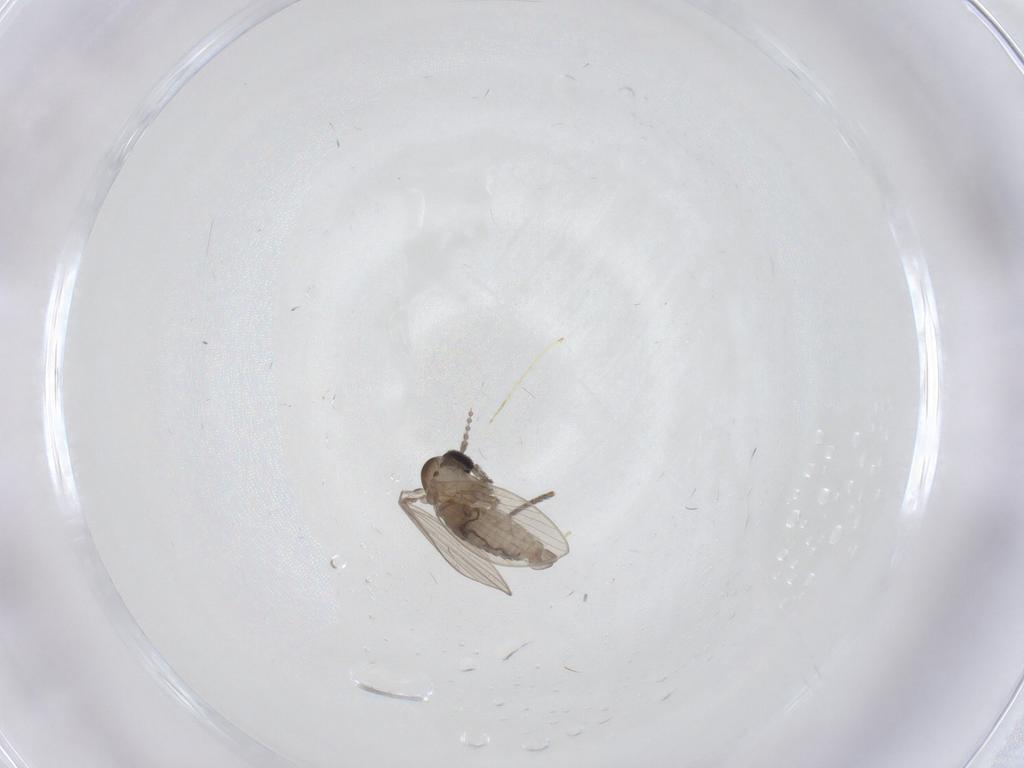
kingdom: Animalia
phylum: Arthropoda
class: Insecta
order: Diptera
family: Psychodidae
